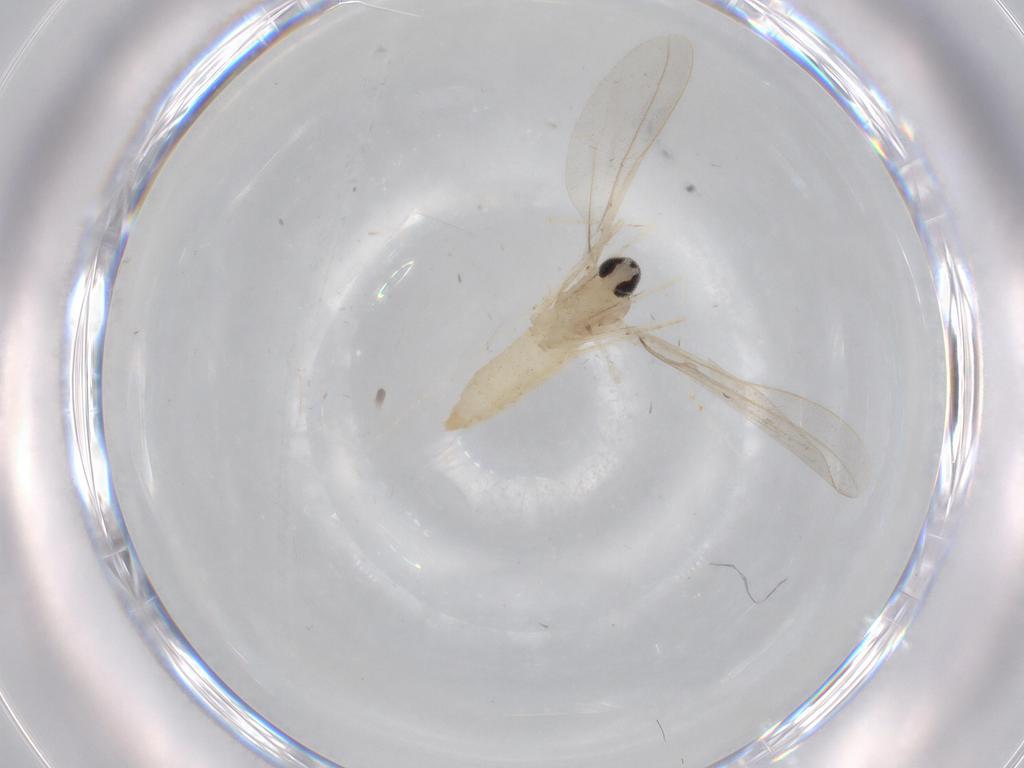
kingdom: Animalia
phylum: Arthropoda
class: Insecta
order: Diptera
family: Cecidomyiidae
